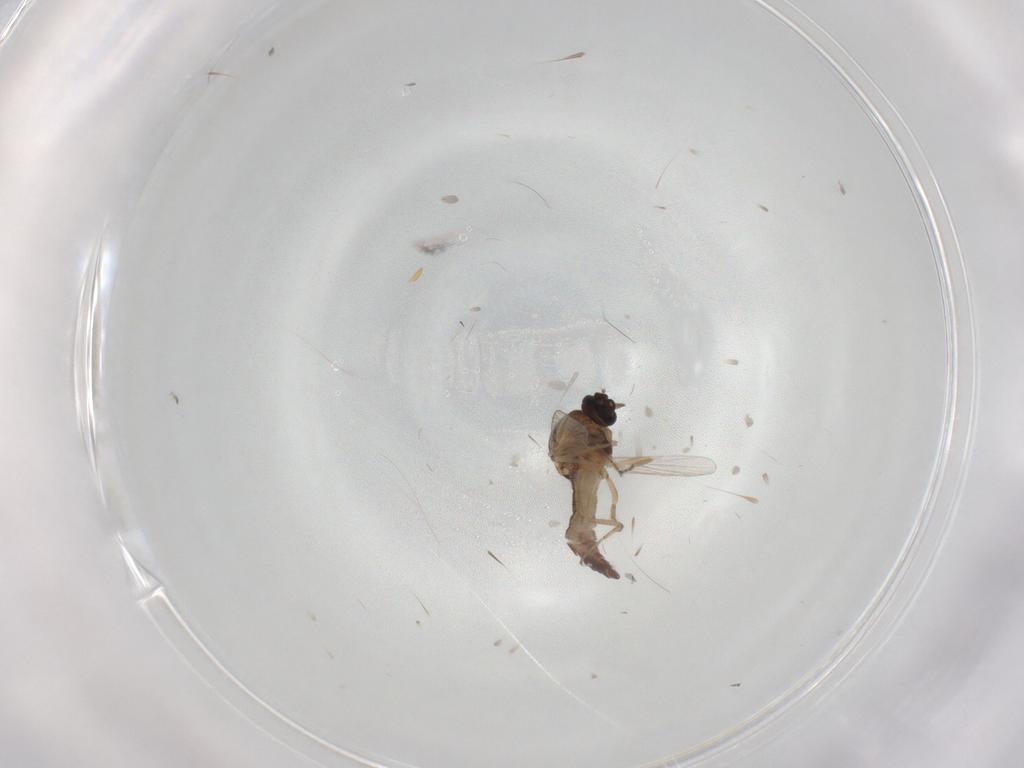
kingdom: Animalia
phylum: Arthropoda
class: Insecta
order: Diptera
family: Ceratopogonidae
